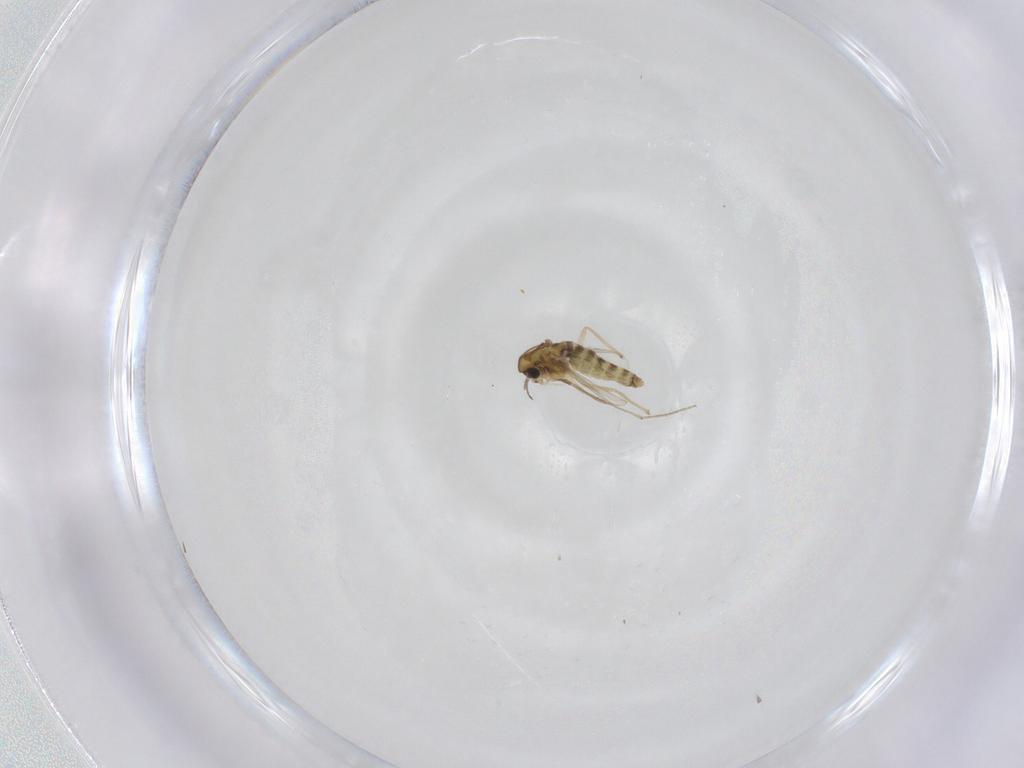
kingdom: Animalia
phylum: Arthropoda
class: Insecta
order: Diptera
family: Chironomidae
